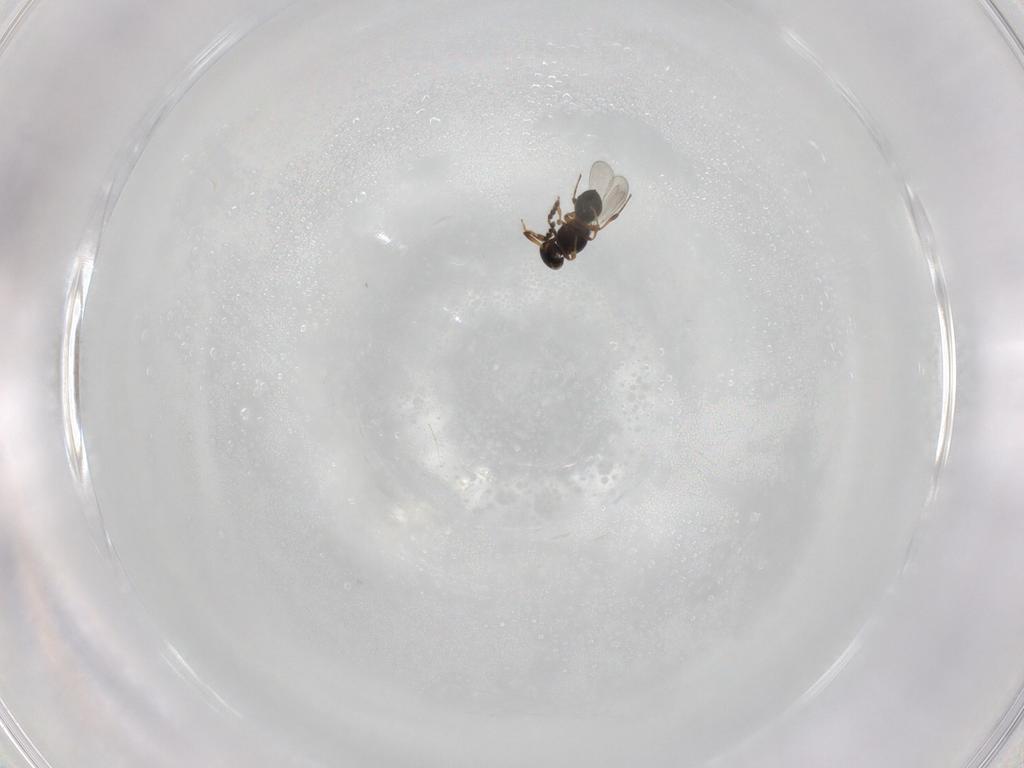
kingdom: Animalia
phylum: Arthropoda
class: Insecta
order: Hymenoptera
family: Platygastridae
